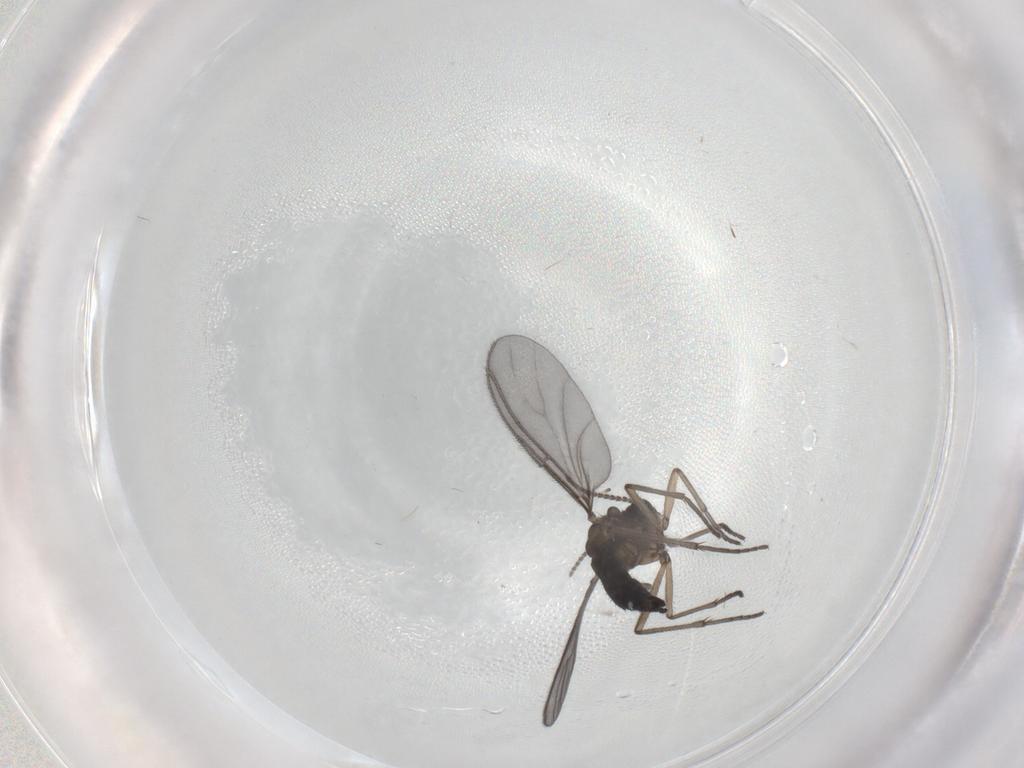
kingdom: Animalia
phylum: Arthropoda
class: Insecta
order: Diptera
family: Sciaridae
